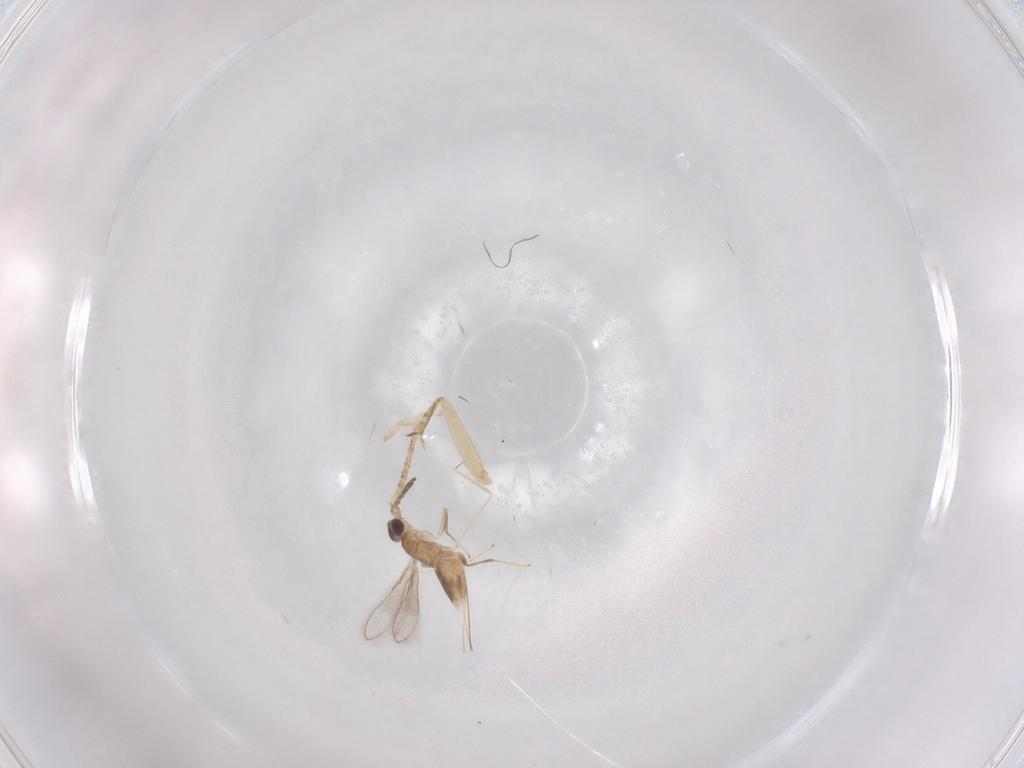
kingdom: Animalia
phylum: Arthropoda
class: Insecta
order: Hymenoptera
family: Mymaridae
